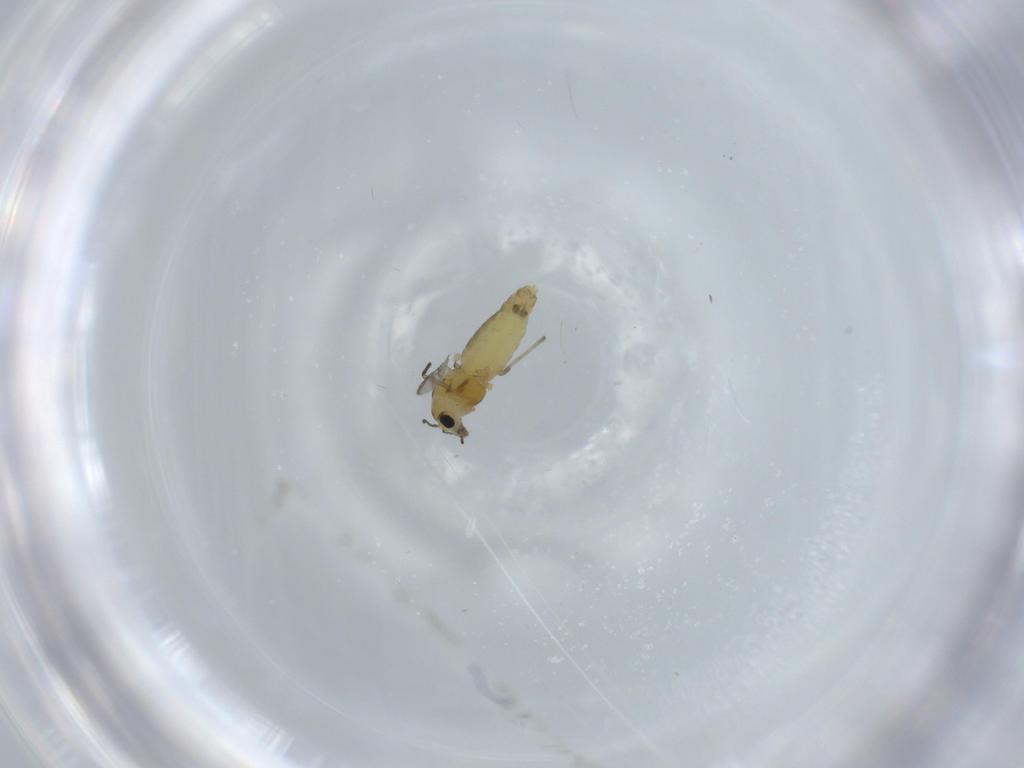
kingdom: Animalia
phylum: Arthropoda
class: Insecta
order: Diptera
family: Chironomidae
